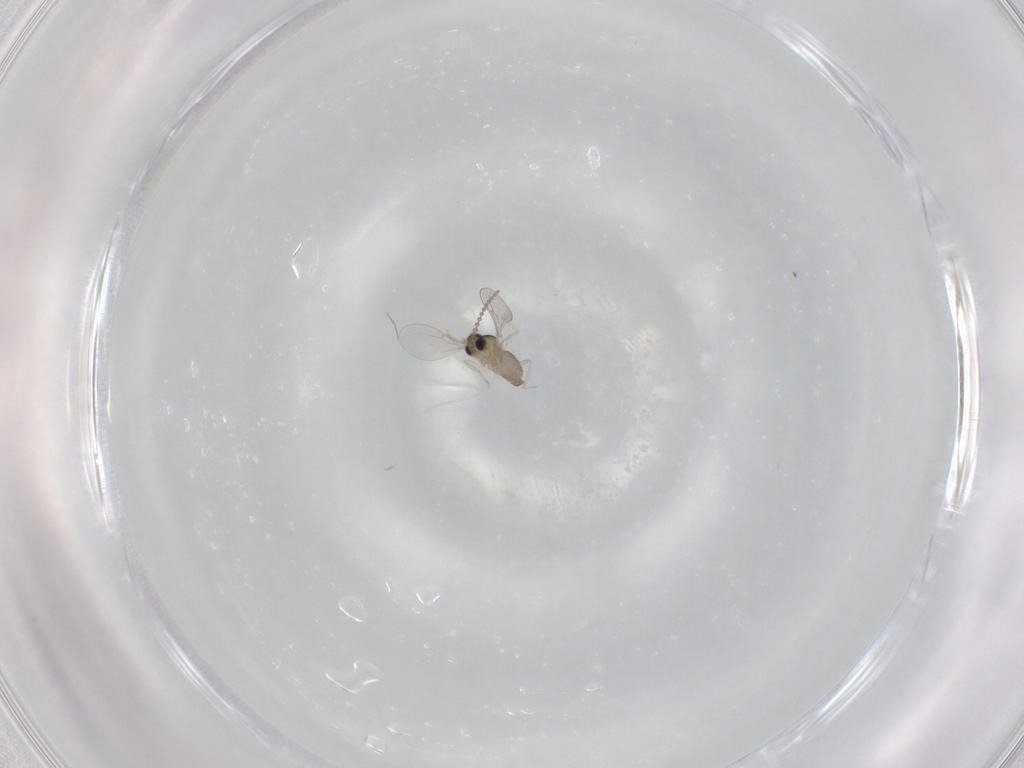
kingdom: Animalia
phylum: Arthropoda
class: Insecta
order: Diptera
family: Cecidomyiidae
